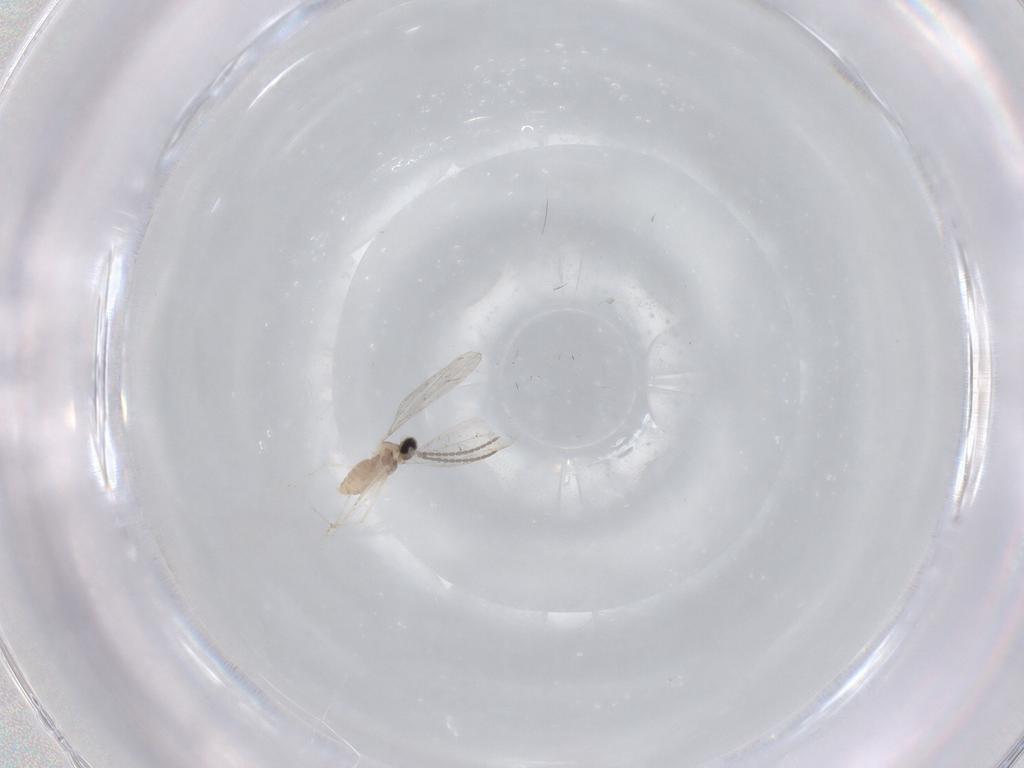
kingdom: Animalia
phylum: Arthropoda
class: Insecta
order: Diptera
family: Cecidomyiidae
